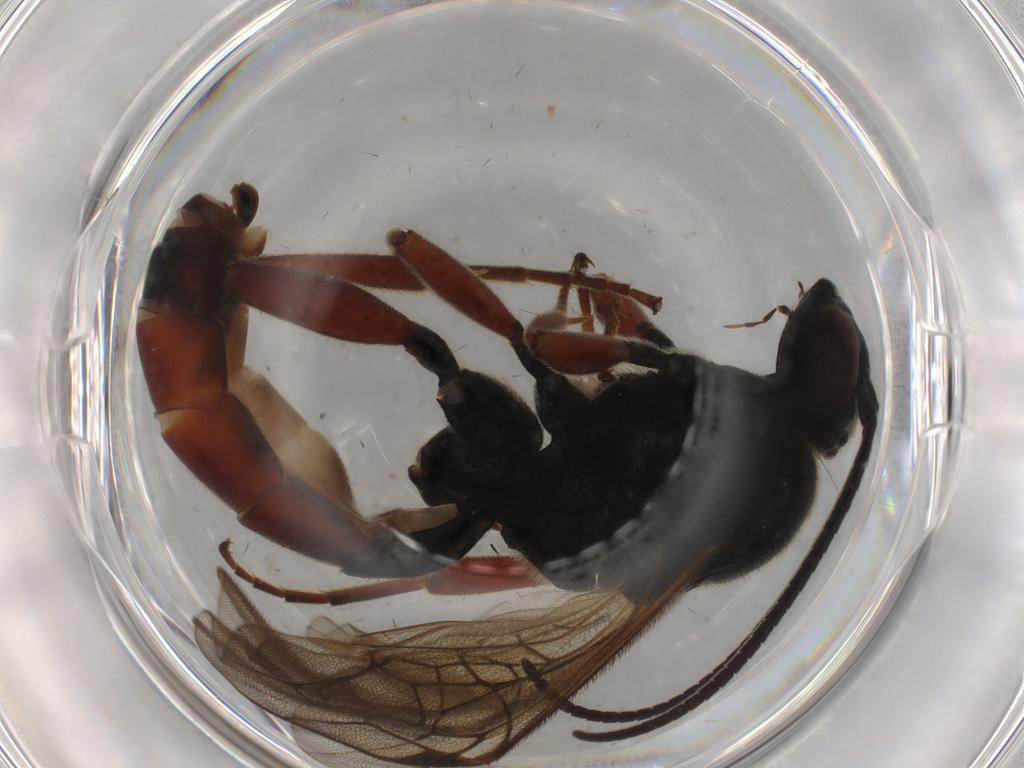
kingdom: Animalia
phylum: Arthropoda
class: Insecta
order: Hymenoptera
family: Ichneumonidae
